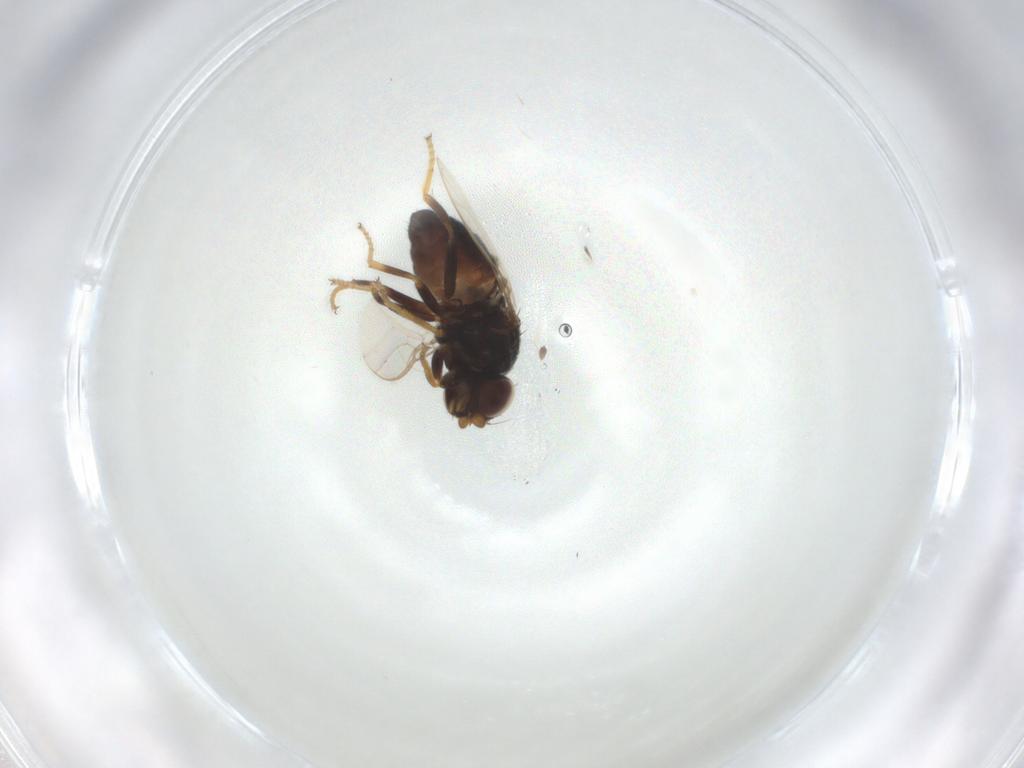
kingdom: Animalia
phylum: Arthropoda
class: Insecta
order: Diptera
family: Chloropidae
